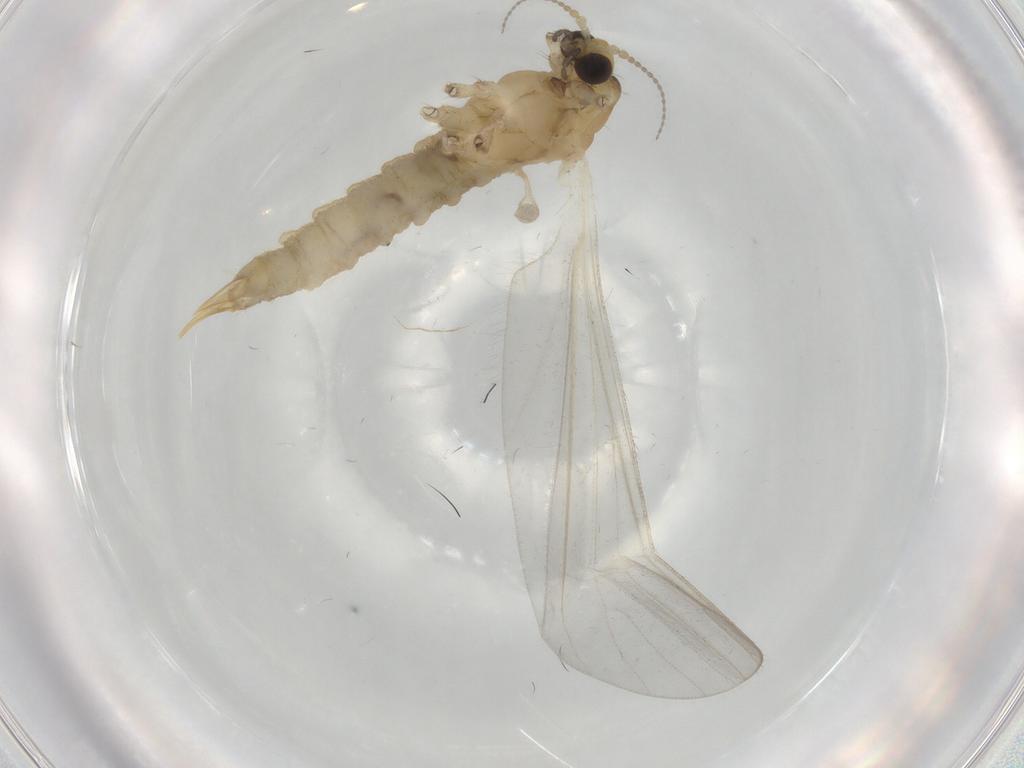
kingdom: Animalia
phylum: Arthropoda
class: Insecta
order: Diptera
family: Limoniidae
